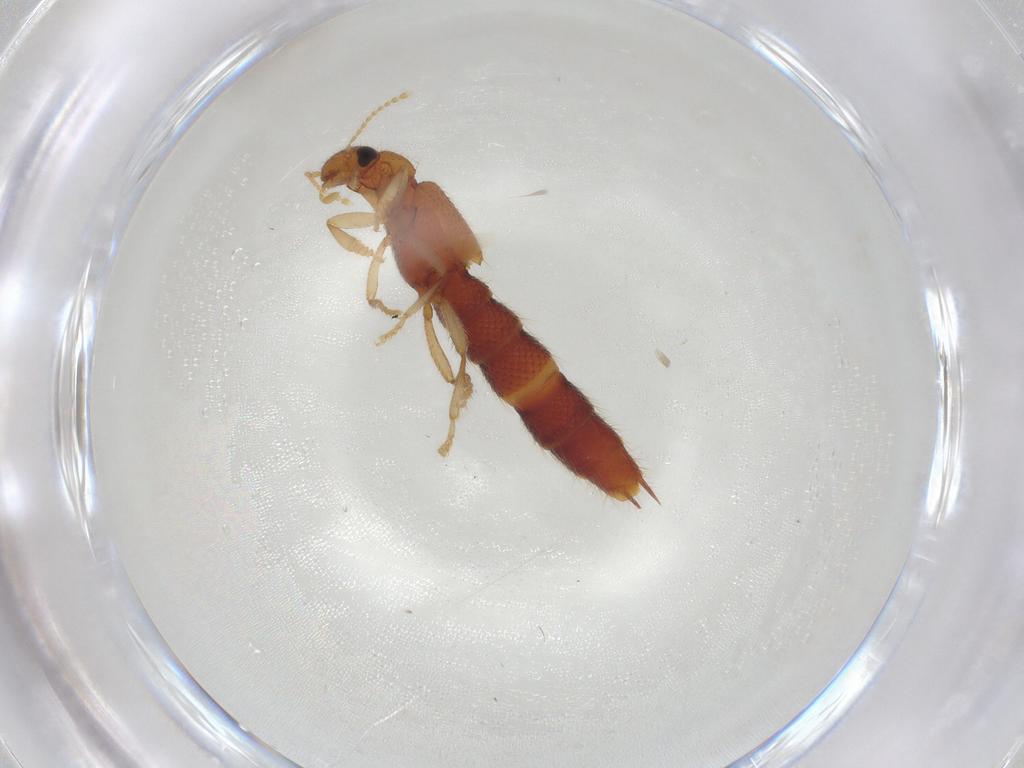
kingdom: Animalia
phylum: Arthropoda
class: Insecta
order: Coleoptera
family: Staphylinidae
